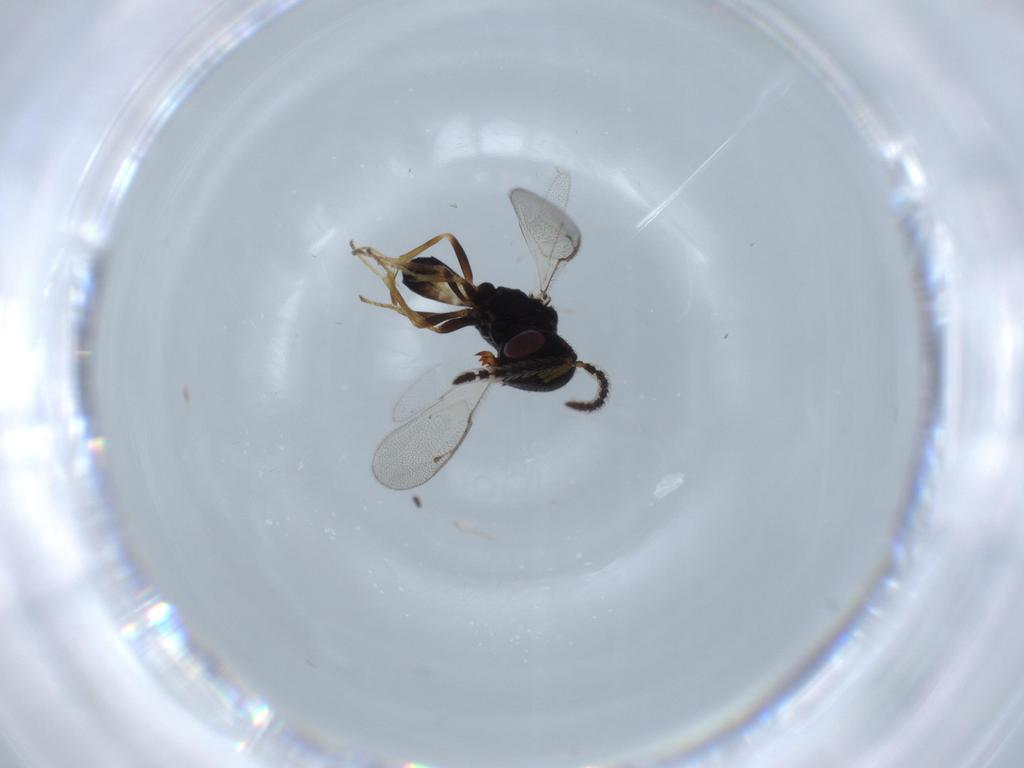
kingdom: Animalia
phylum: Arthropoda
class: Insecta
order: Hymenoptera
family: Pteromalidae
